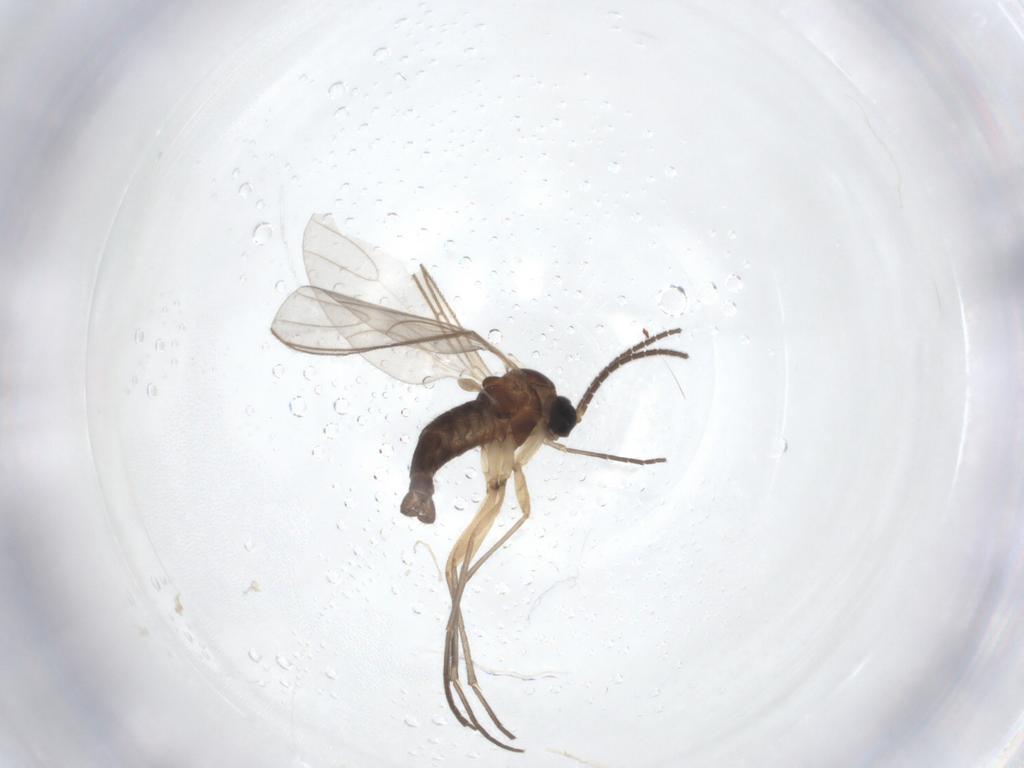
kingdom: Animalia
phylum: Arthropoda
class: Insecta
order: Diptera
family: Sciaridae
